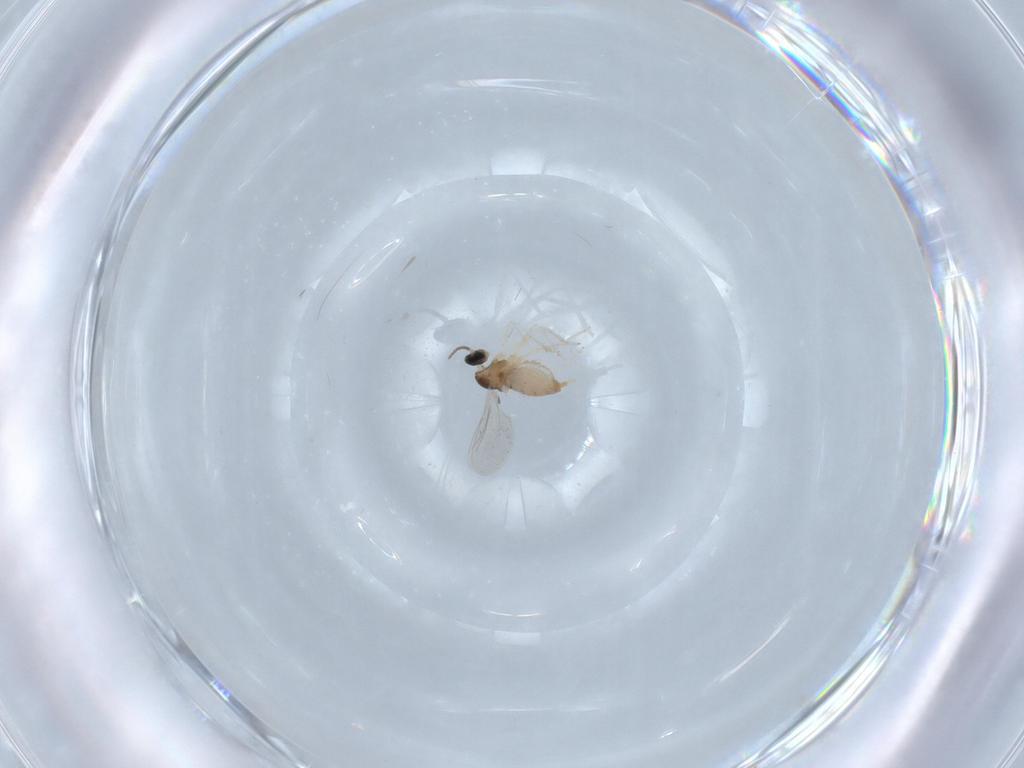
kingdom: Animalia
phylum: Arthropoda
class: Insecta
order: Diptera
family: Cecidomyiidae
